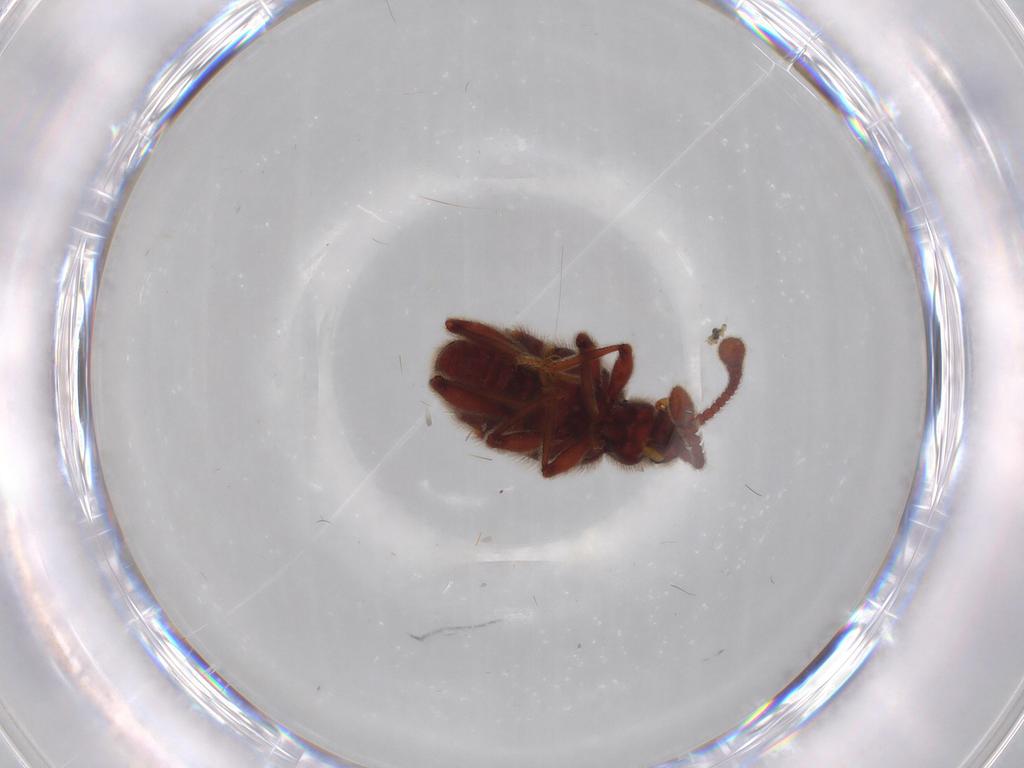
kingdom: Animalia
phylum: Arthropoda
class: Insecta
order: Coleoptera
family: Staphylinidae
